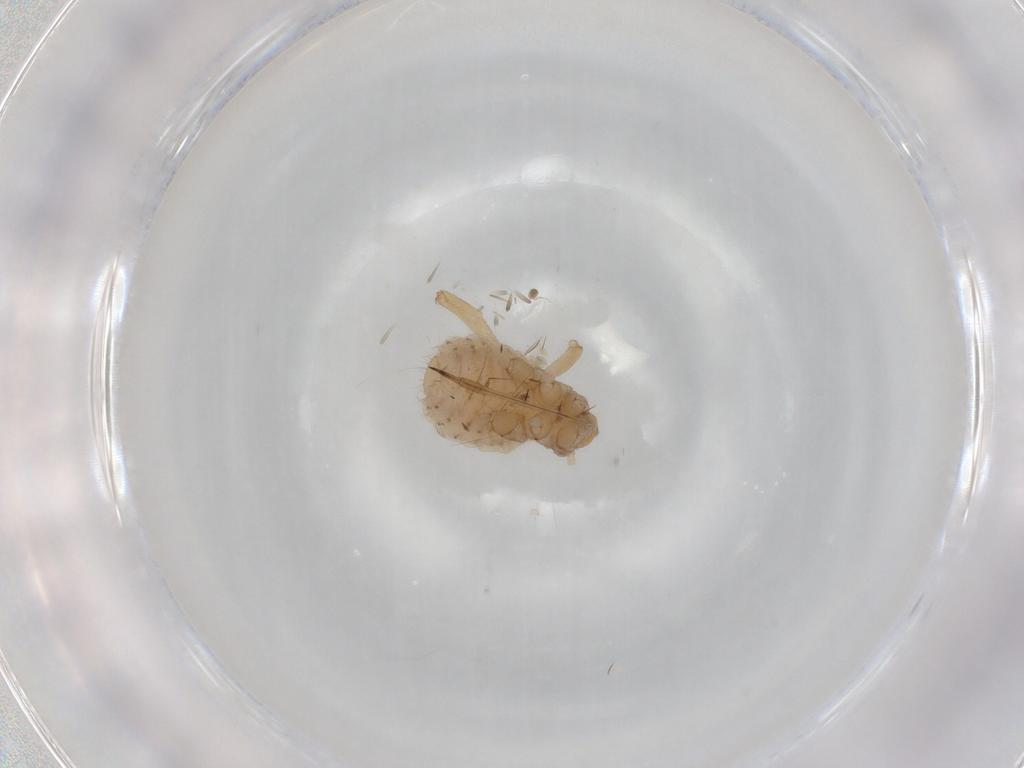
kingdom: Animalia
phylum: Arthropoda
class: Insecta
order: Hemiptera
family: Aphididae
